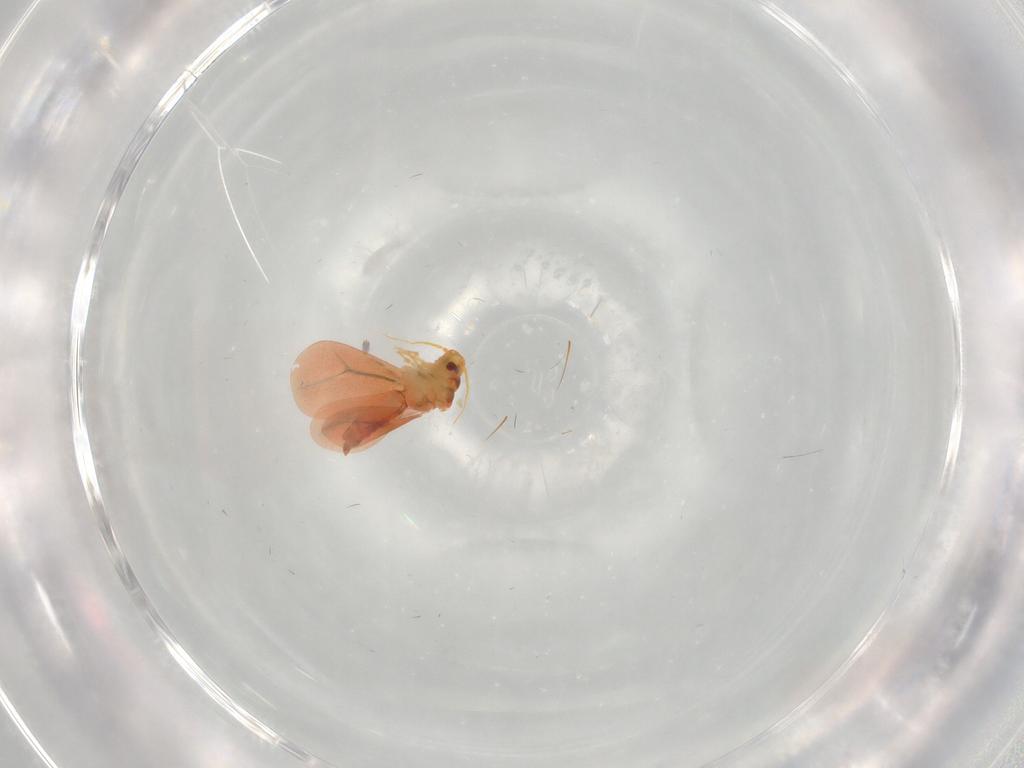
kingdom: Animalia
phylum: Arthropoda
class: Insecta
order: Hemiptera
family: Aleyrodidae
